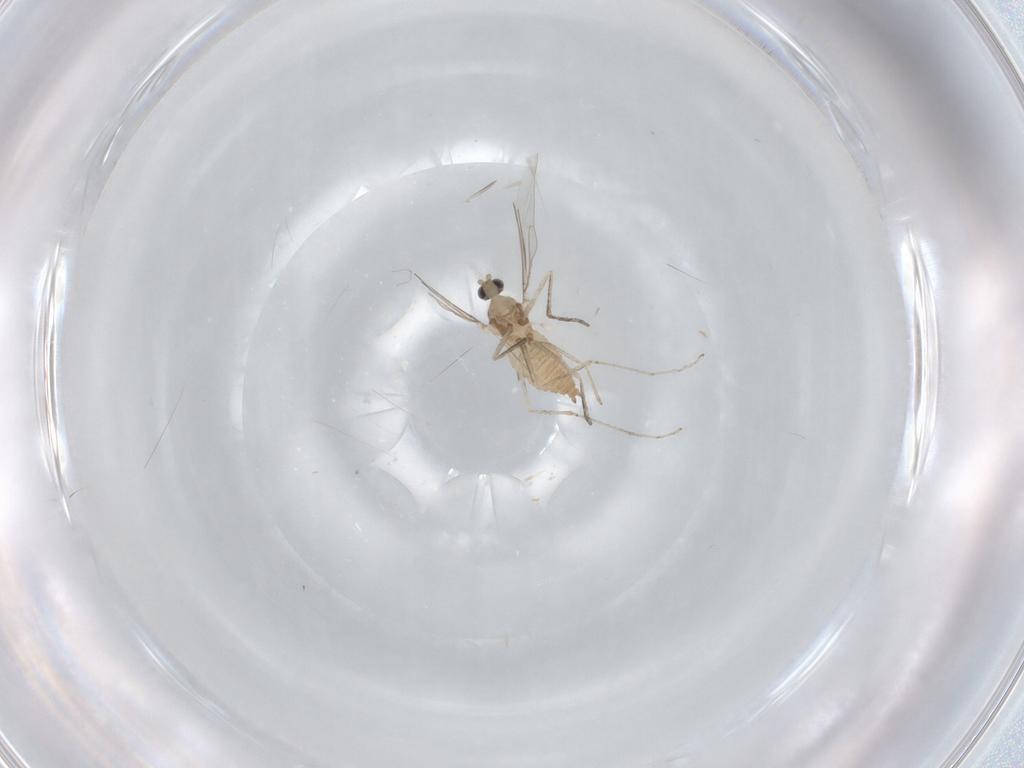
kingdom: Animalia
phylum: Arthropoda
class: Insecta
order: Diptera
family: Cecidomyiidae
